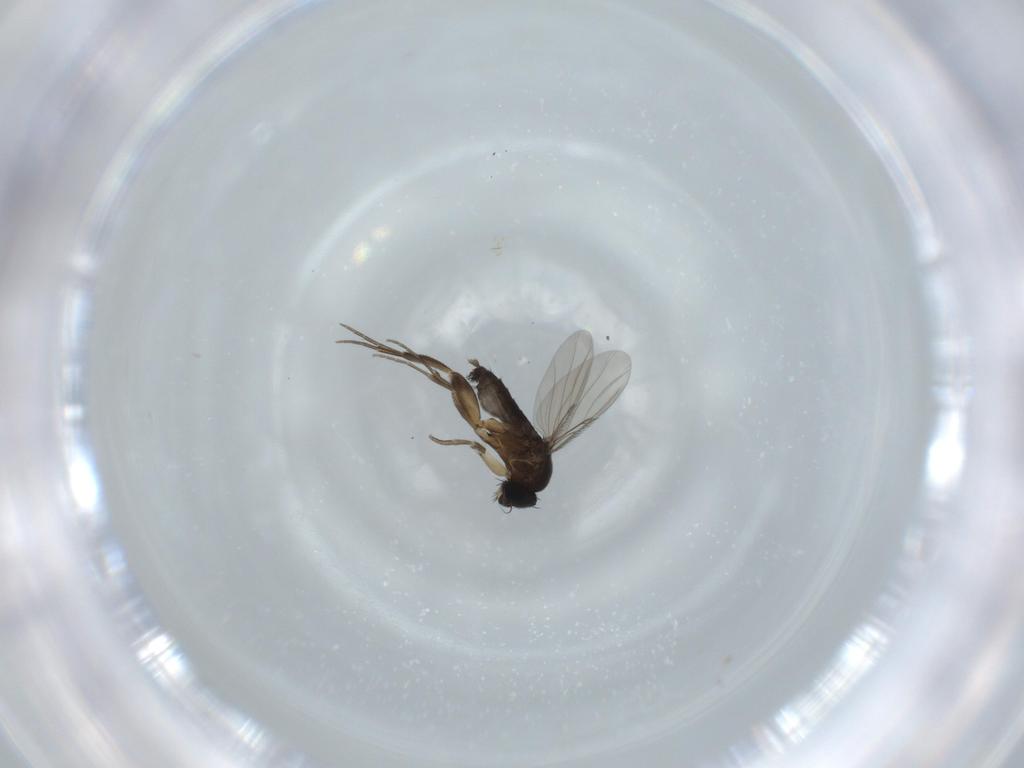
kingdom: Animalia
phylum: Arthropoda
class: Insecta
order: Diptera
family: Phoridae
